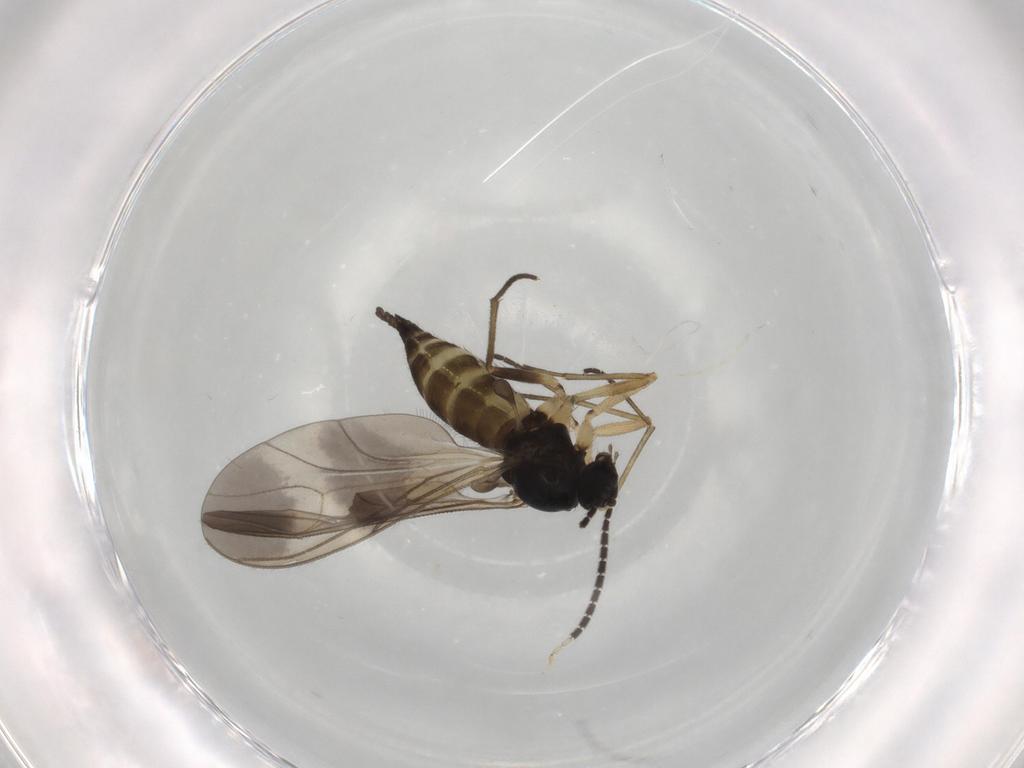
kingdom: Animalia
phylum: Arthropoda
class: Insecta
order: Diptera
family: Sciaridae
